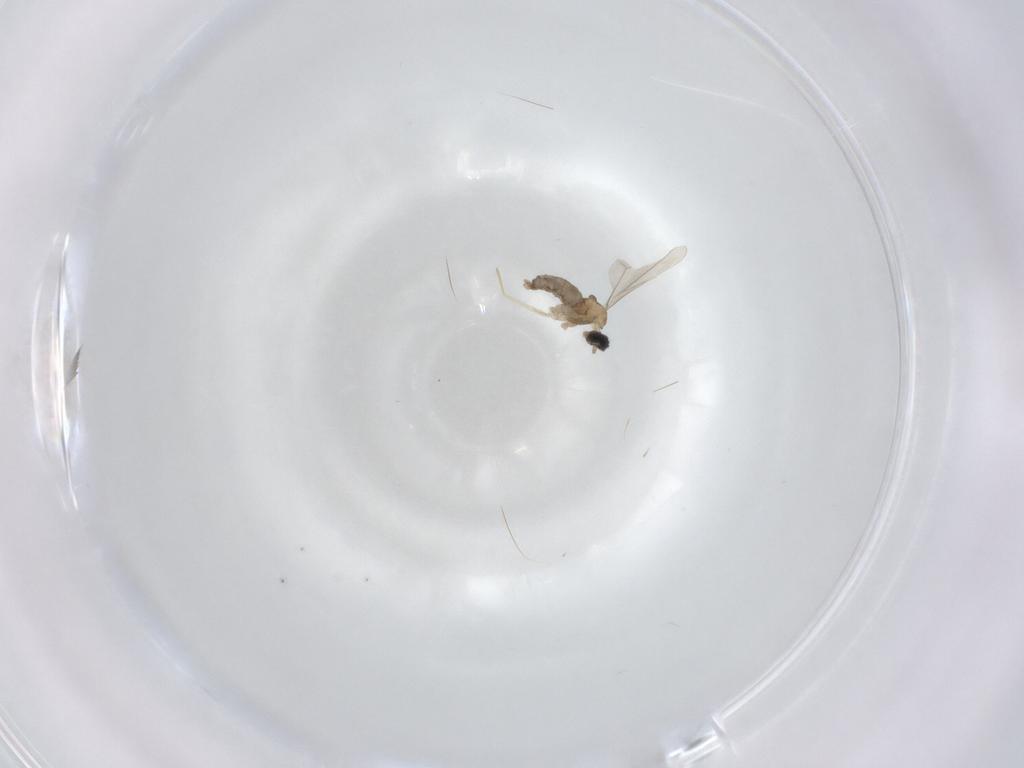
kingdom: Animalia
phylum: Arthropoda
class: Insecta
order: Diptera
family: Cecidomyiidae
